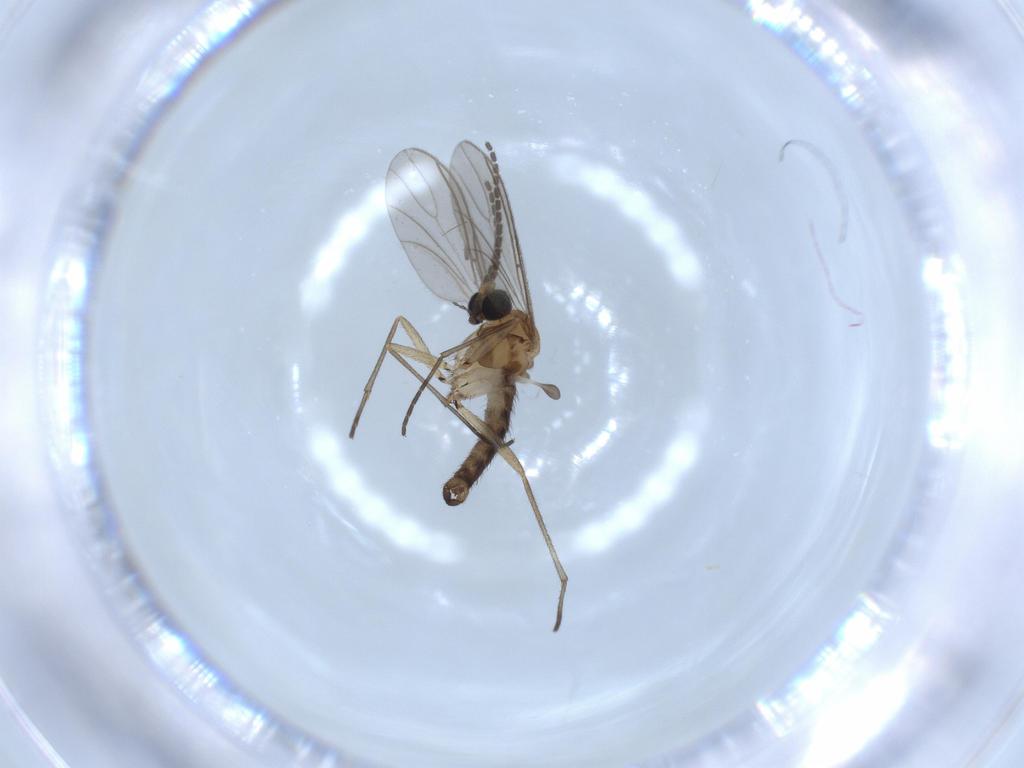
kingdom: Animalia
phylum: Arthropoda
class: Insecta
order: Diptera
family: Sciaridae
